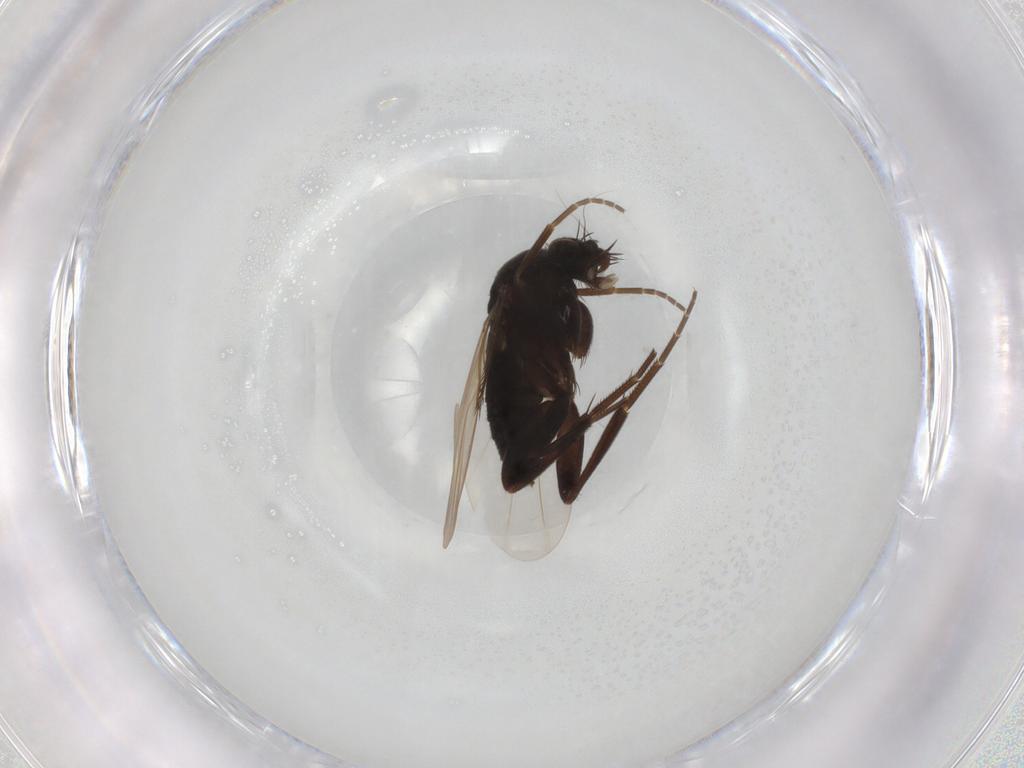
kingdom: Animalia
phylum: Arthropoda
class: Insecta
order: Diptera
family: Phoridae
